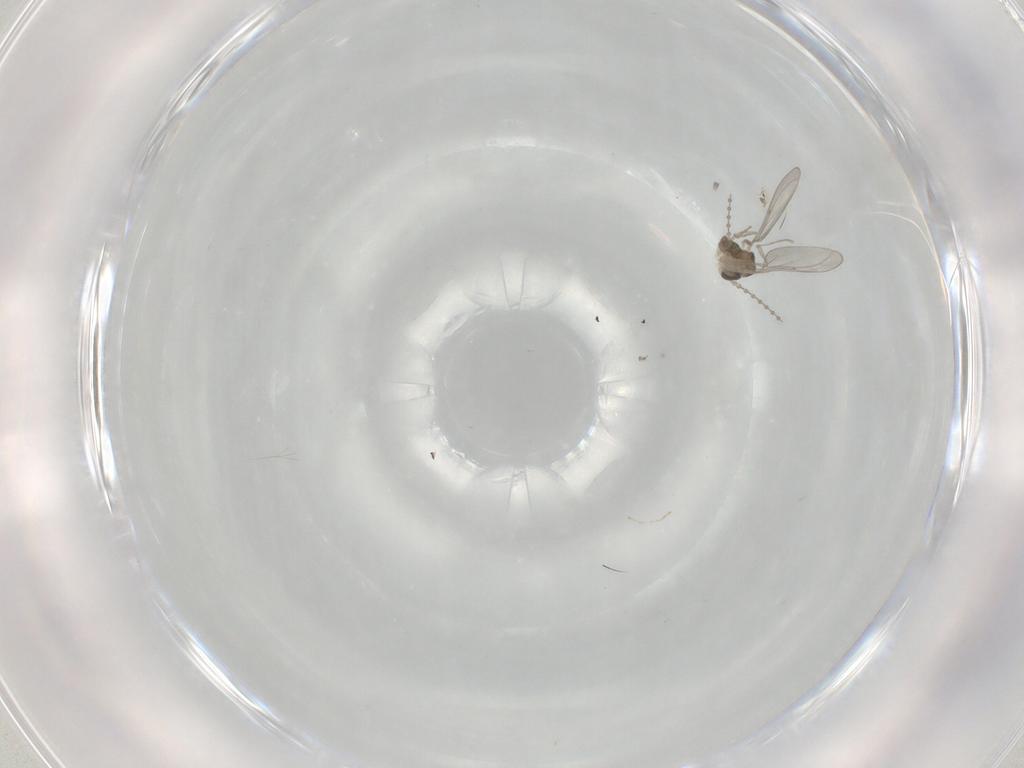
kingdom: Animalia
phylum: Arthropoda
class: Insecta
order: Diptera
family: Cecidomyiidae
